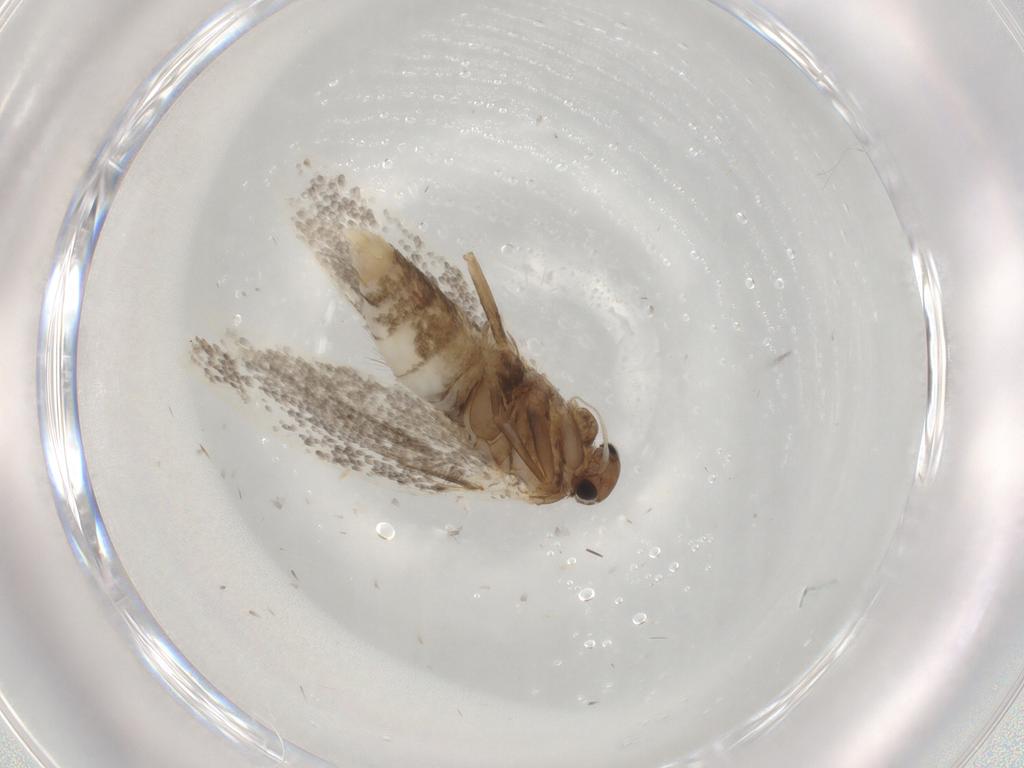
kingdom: Animalia
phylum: Arthropoda
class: Insecta
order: Lepidoptera
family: Elachistidae
